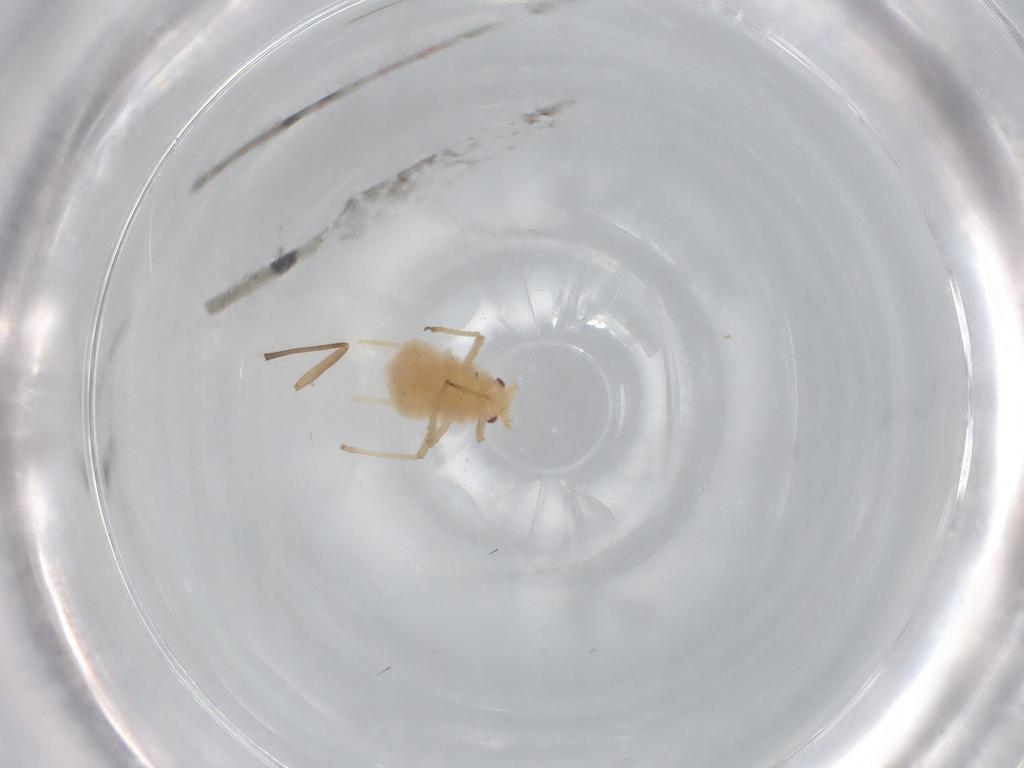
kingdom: Animalia
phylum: Arthropoda
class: Insecta
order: Hemiptera
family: Aphididae
